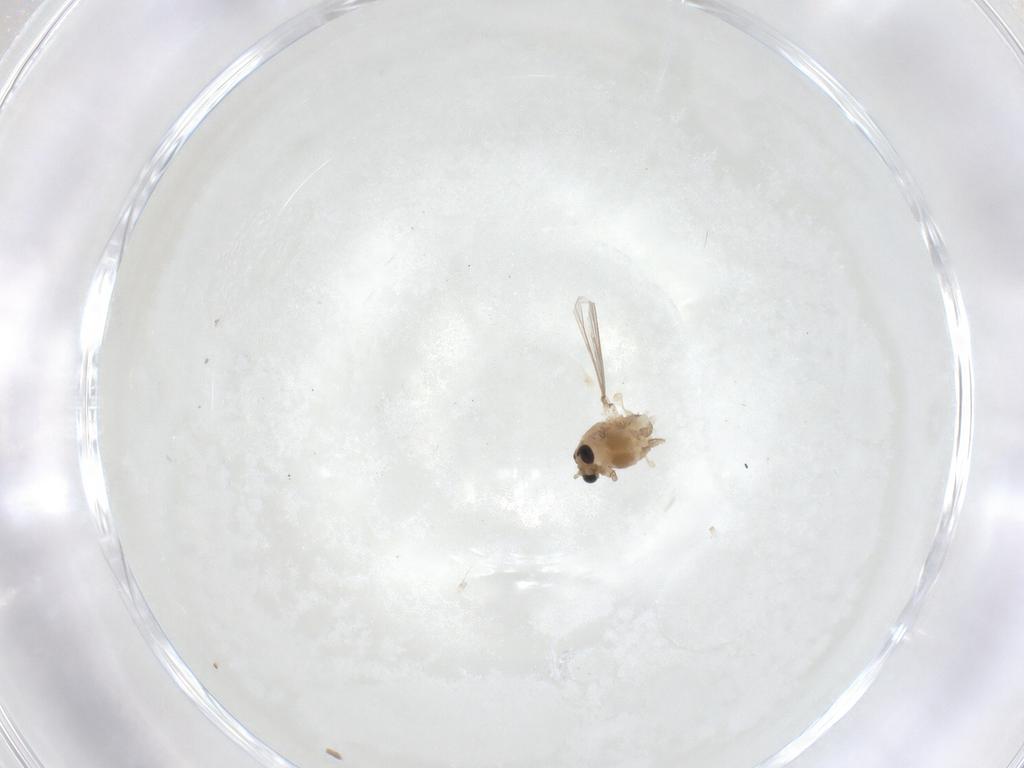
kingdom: Animalia
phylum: Arthropoda
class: Insecta
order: Diptera
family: Chironomidae
